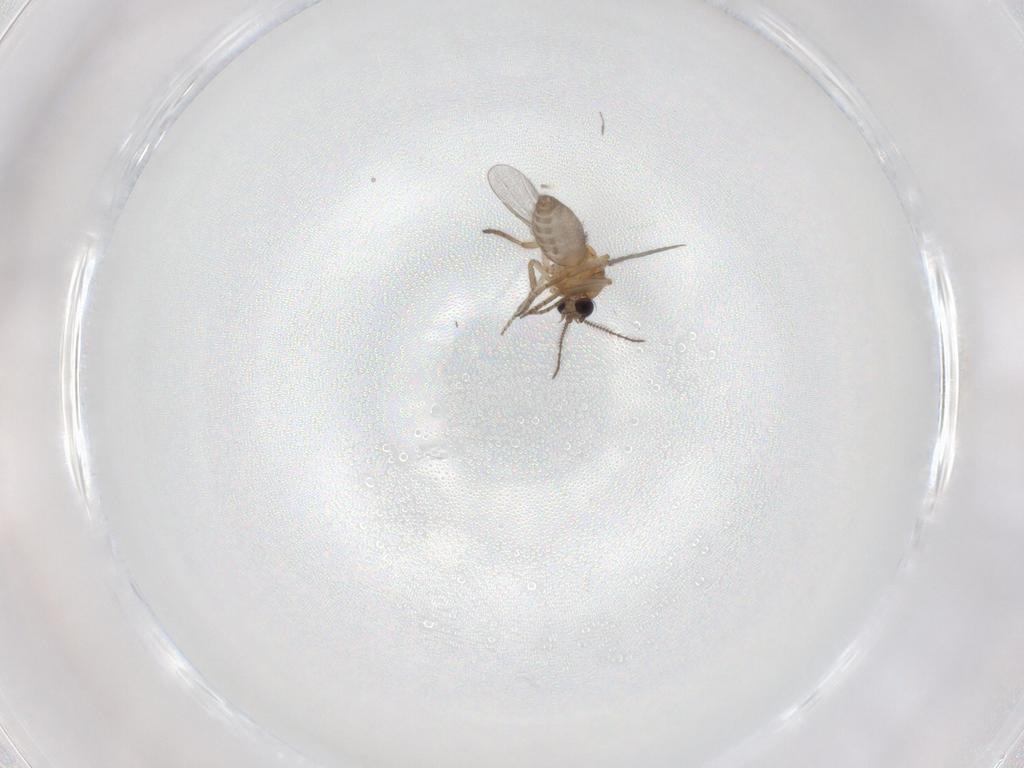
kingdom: Animalia
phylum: Arthropoda
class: Insecta
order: Diptera
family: Ceratopogonidae
